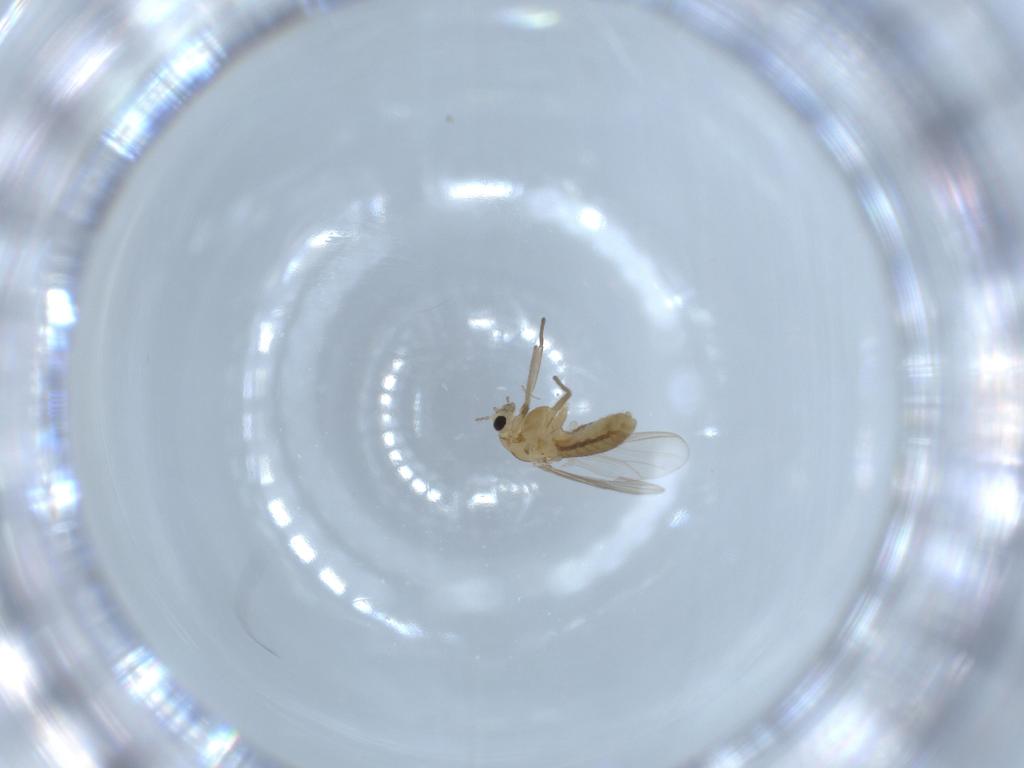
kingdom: Animalia
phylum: Arthropoda
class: Insecta
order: Diptera
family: Chironomidae
